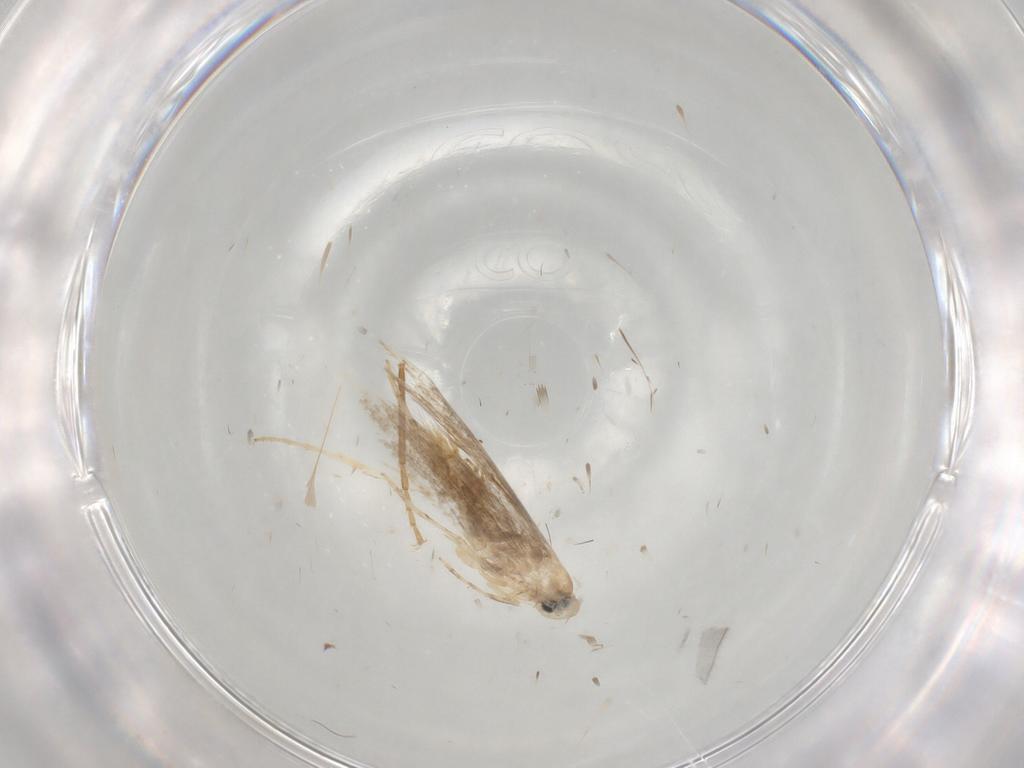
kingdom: Animalia
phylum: Arthropoda
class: Insecta
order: Lepidoptera
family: Gracillariidae
